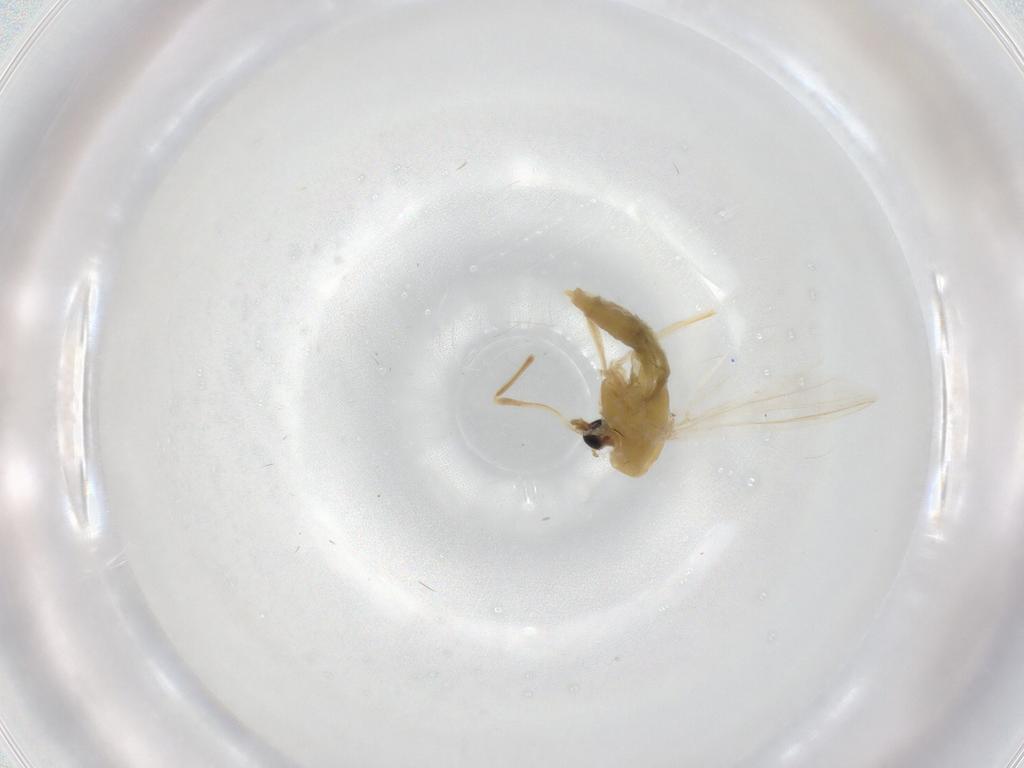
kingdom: Animalia
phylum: Arthropoda
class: Insecta
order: Diptera
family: Chironomidae
